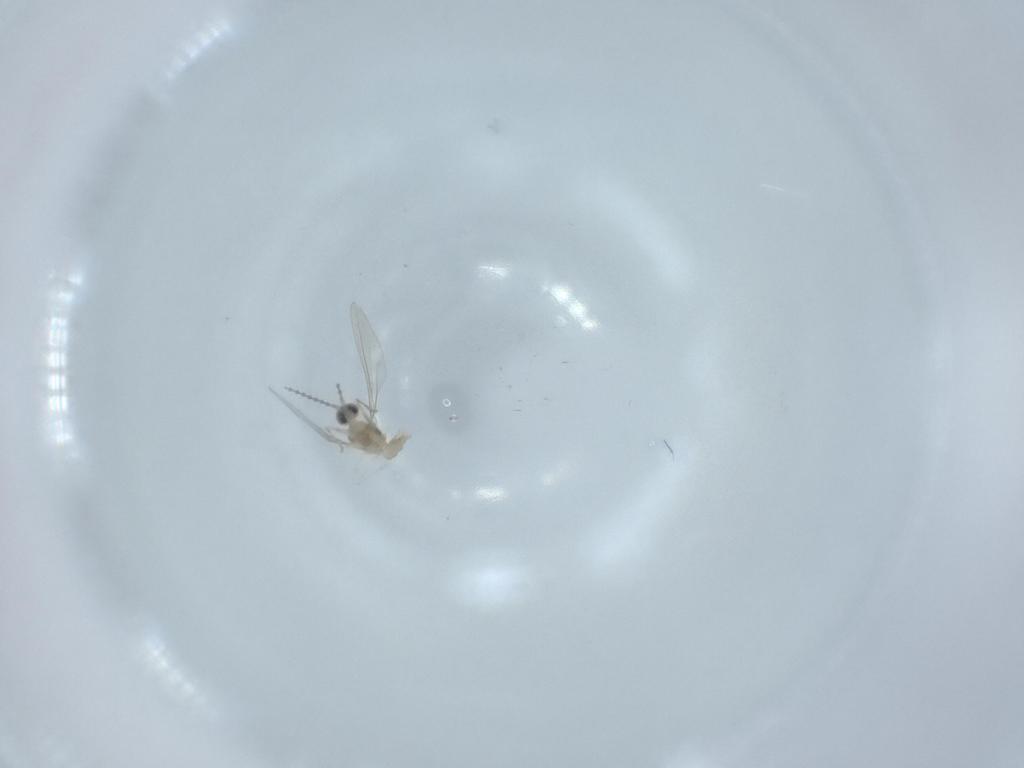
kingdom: Animalia
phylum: Arthropoda
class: Insecta
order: Diptera
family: Cecidomyiidae
